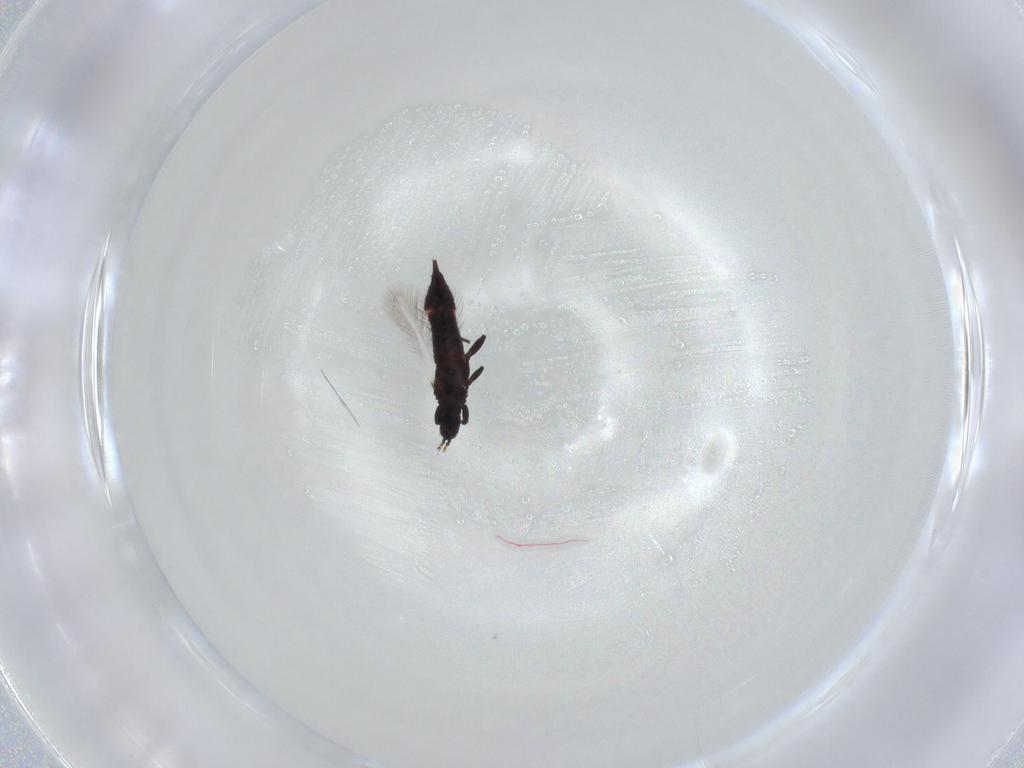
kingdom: Animalia
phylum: Arthropoda
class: Insecta
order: Thysanoptera
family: Phlaeothripidae
